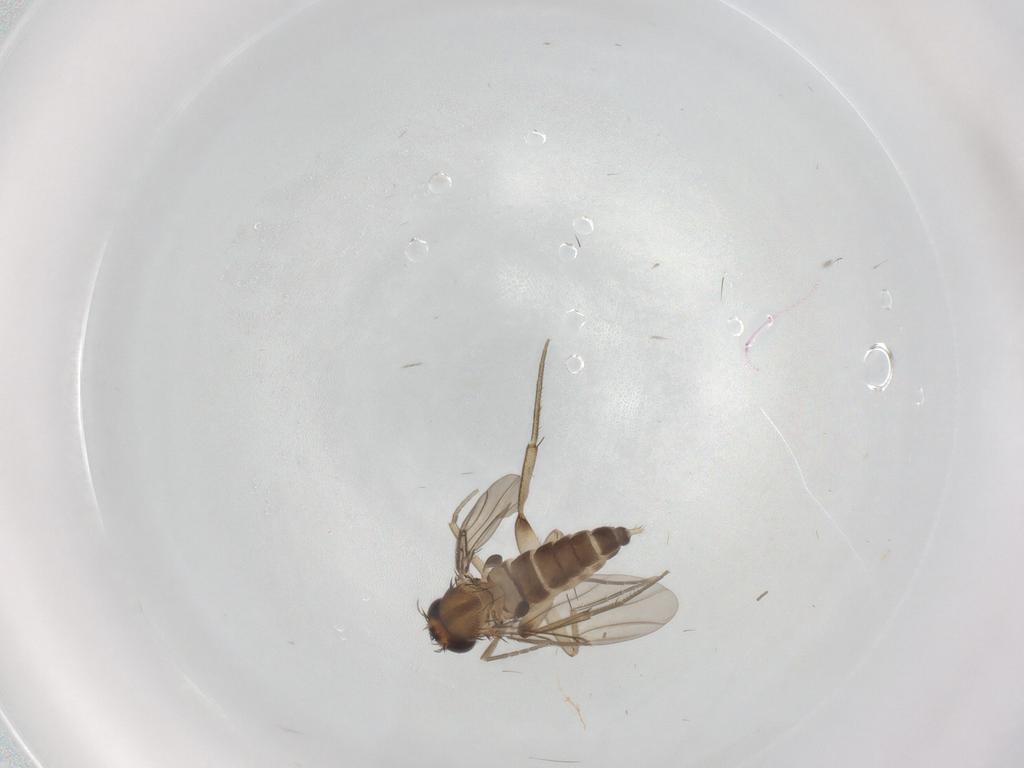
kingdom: Animalia
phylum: Arthropoda
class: Insecta
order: Diptera
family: Phoridae
